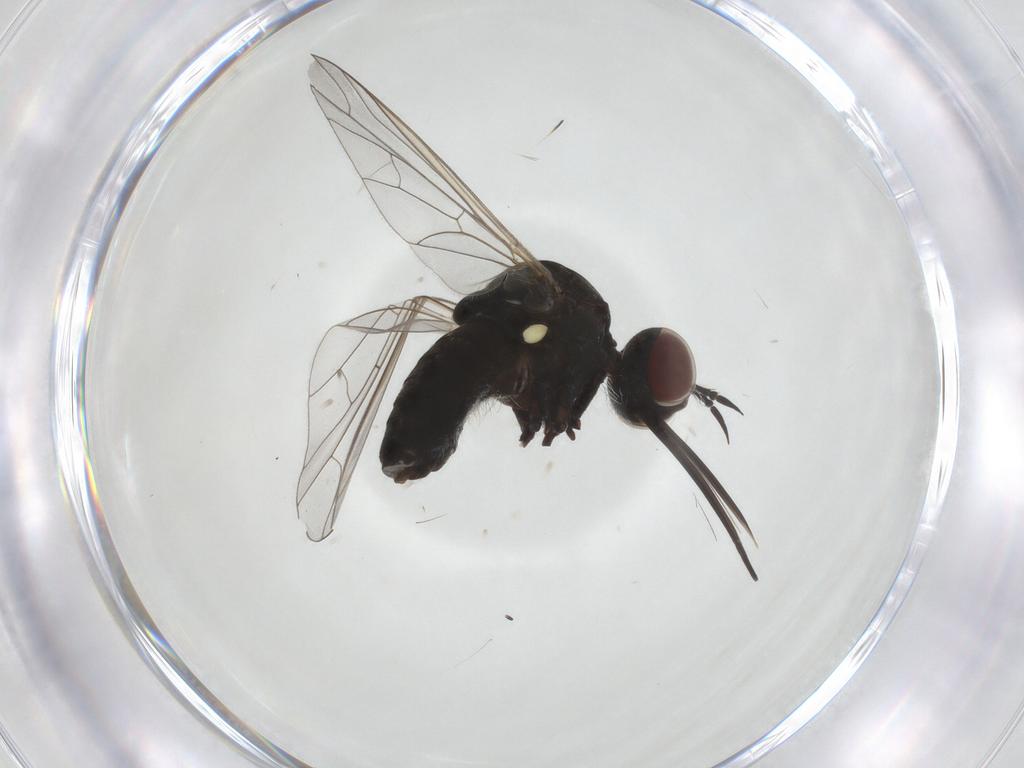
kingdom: Animalia
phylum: Arthropoda
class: Insecta
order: Diptera
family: Bombyliidae
